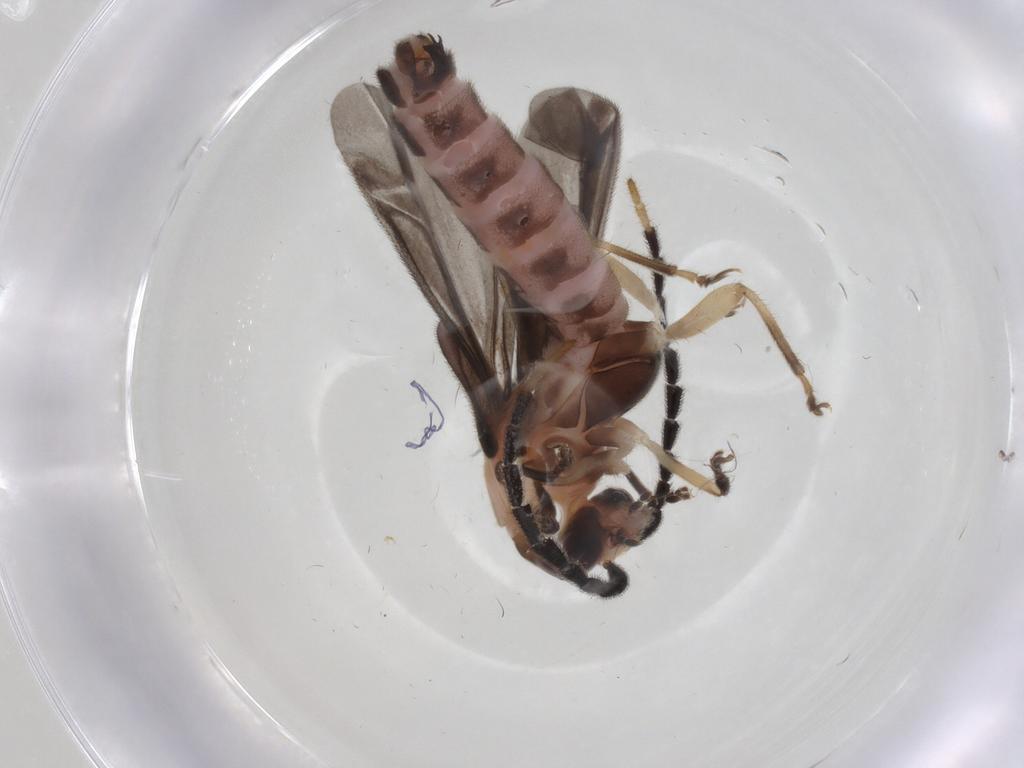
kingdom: Animalia
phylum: Arthropoda
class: Insecta
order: Coleoptera
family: Cantharidae
